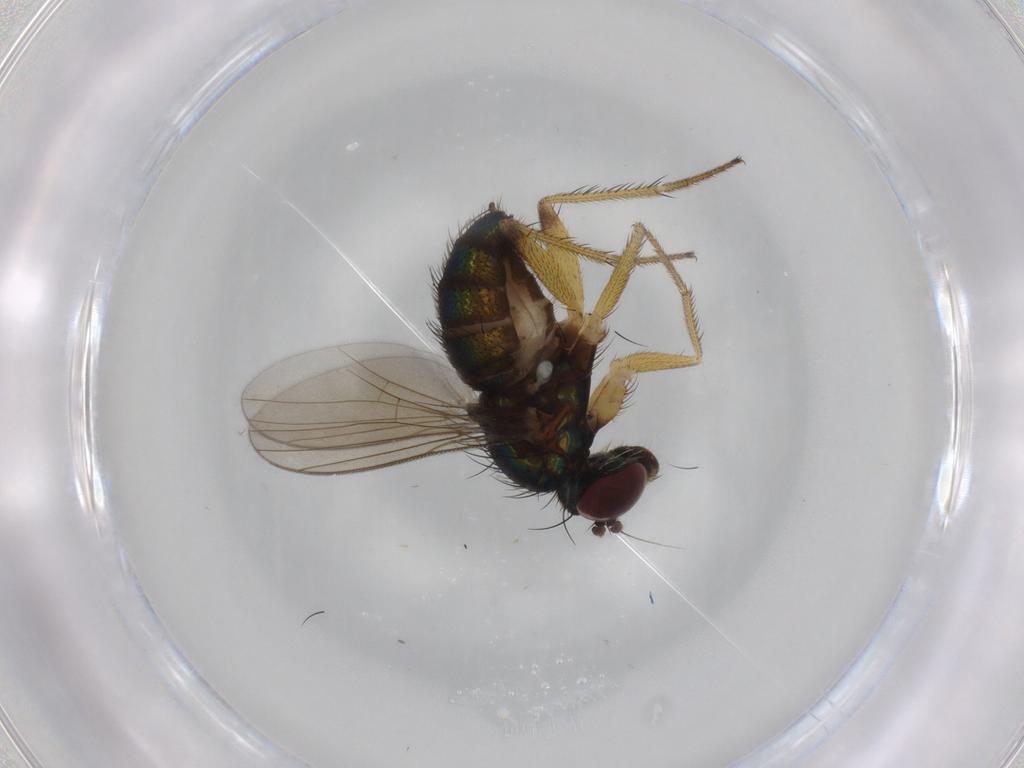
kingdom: Animalia
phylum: Arthropoda
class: Insecta
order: Diptera
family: Dolichopodidae
